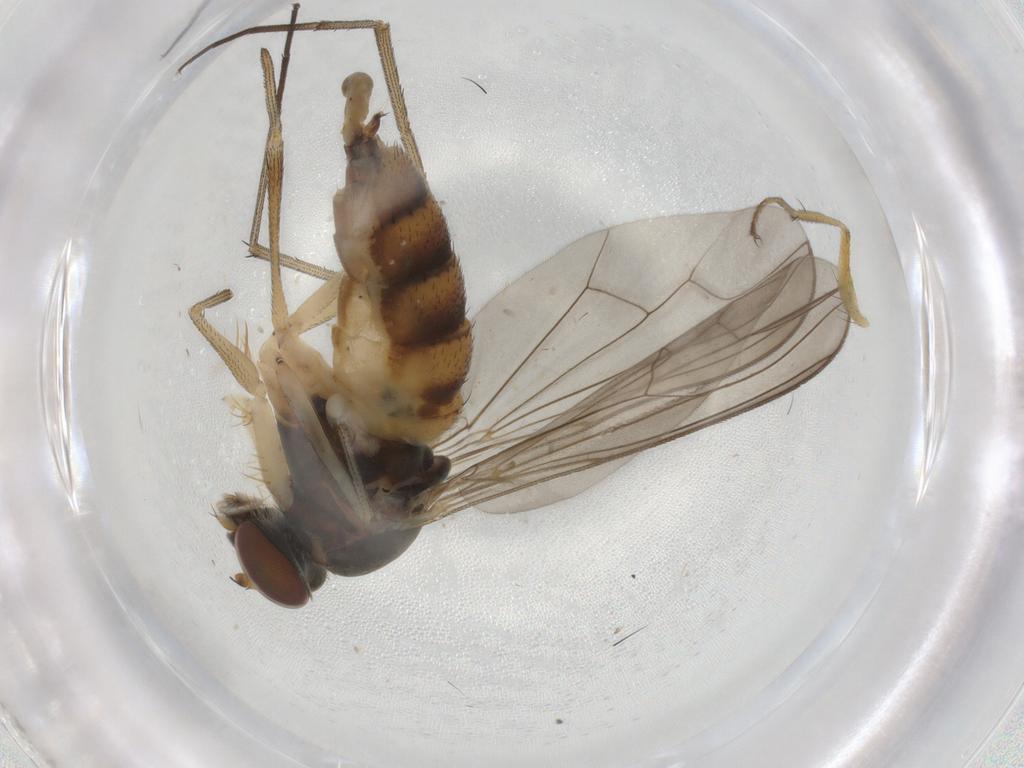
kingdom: Animalia
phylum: Arthropoda
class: Insecta
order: Diptera
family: Dolichopodidae
